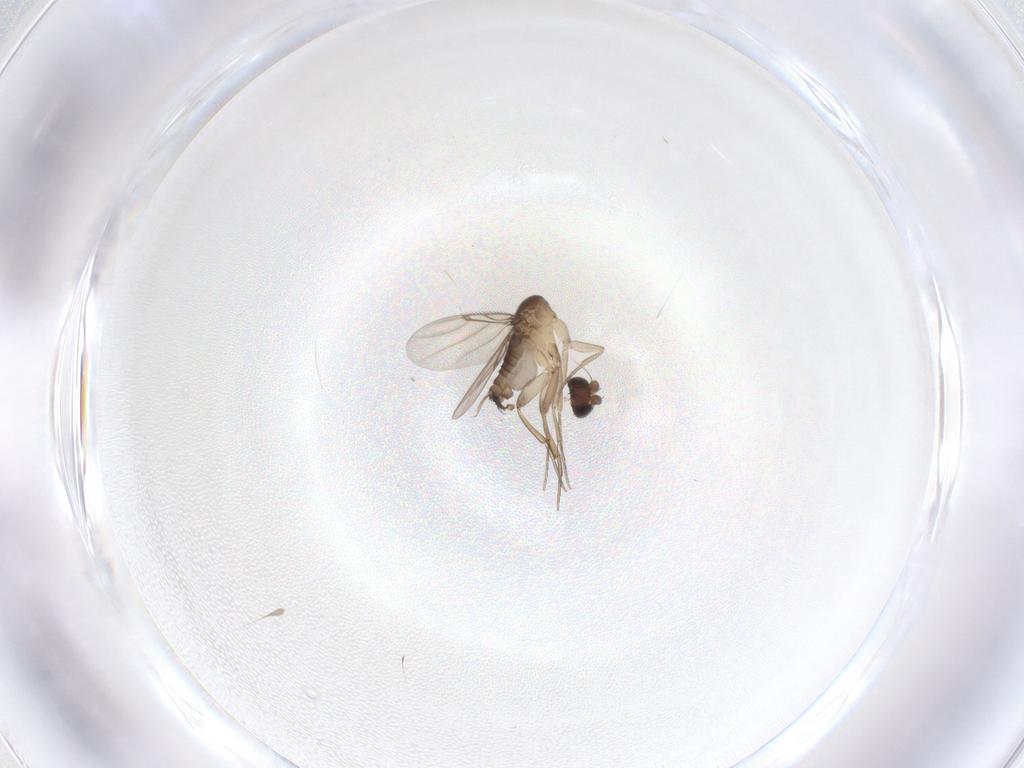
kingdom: Animalia
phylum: Arthropoda
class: Insecta
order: Diptera
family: Phoridae
